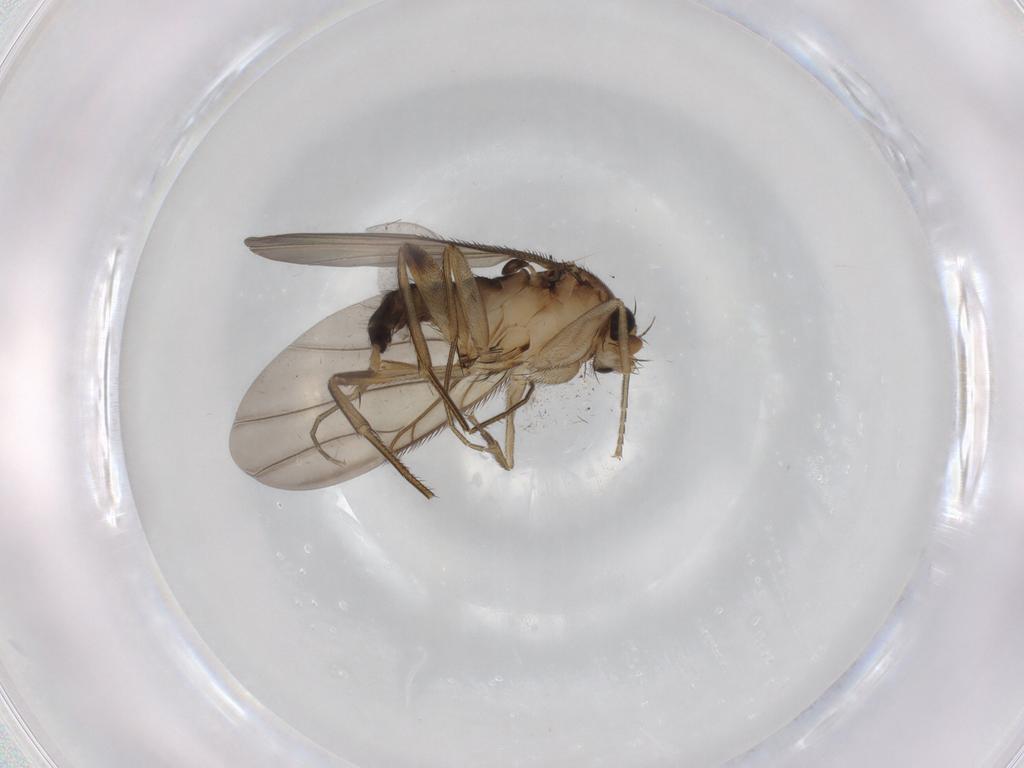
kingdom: Animalia
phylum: Arthropoda
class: Insecta
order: Diptera
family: Phoridae
